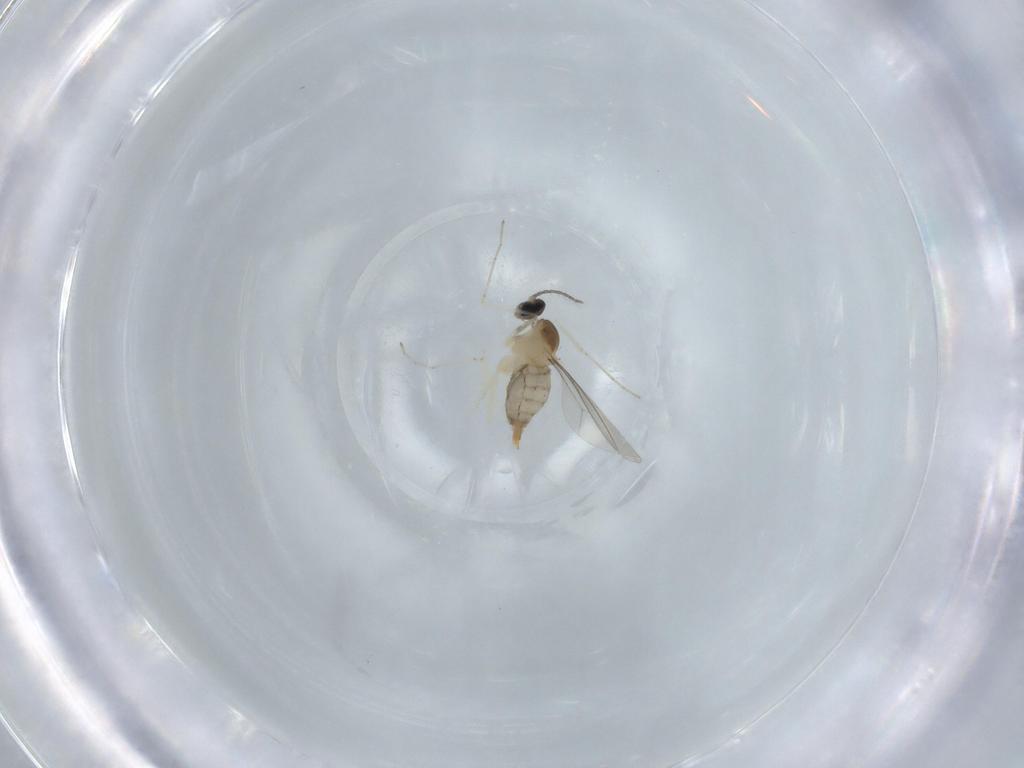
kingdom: Animalia
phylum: Arthropoda
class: Insecta
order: Diptera
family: Cecidomyiidae
